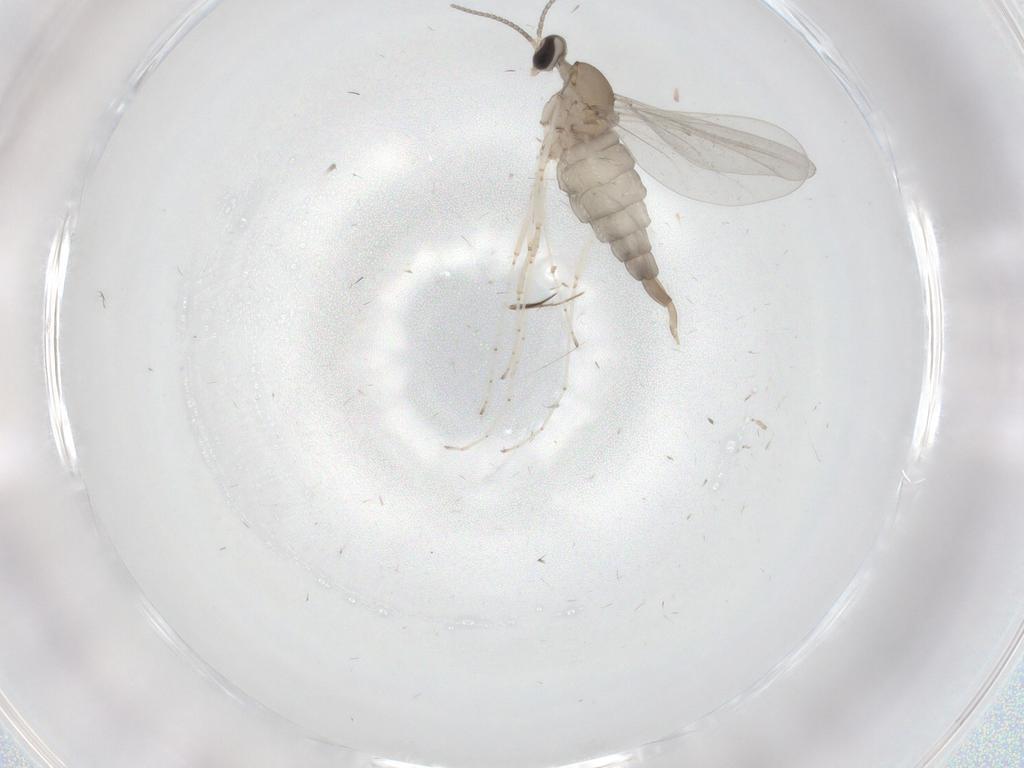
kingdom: Animalia
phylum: Arthropoda
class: Insecta
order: Diptera
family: Cecidomyiidae
